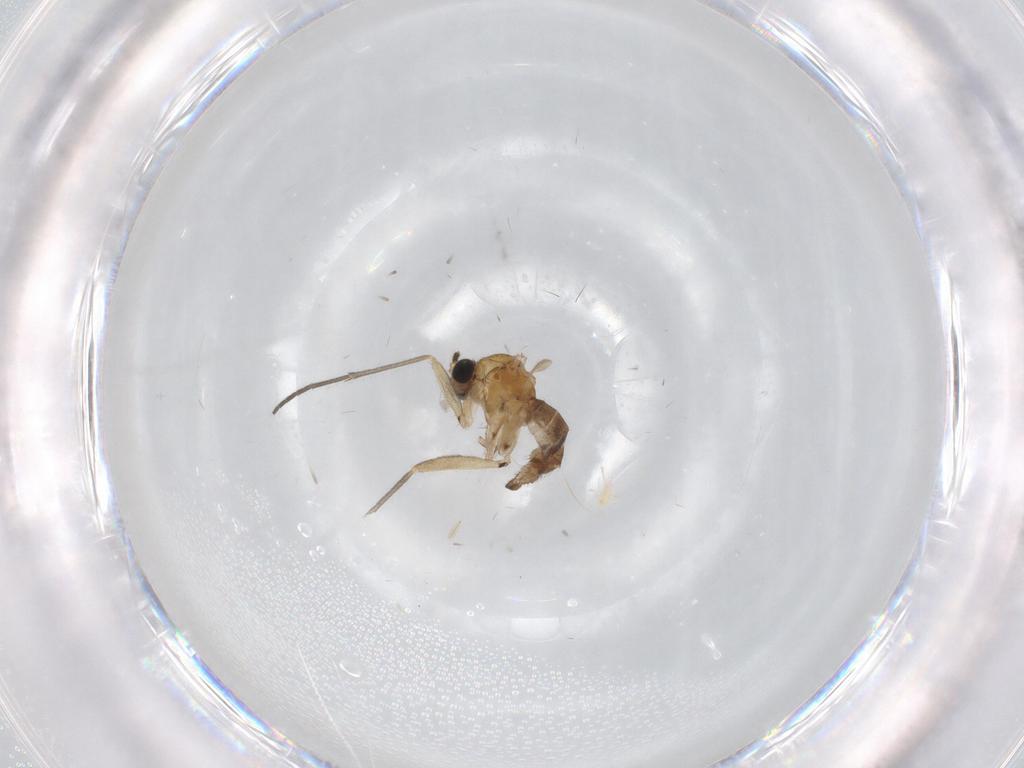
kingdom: Animalia
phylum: Arthropoda
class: Insecta
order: Diptera
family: Sciaridae
